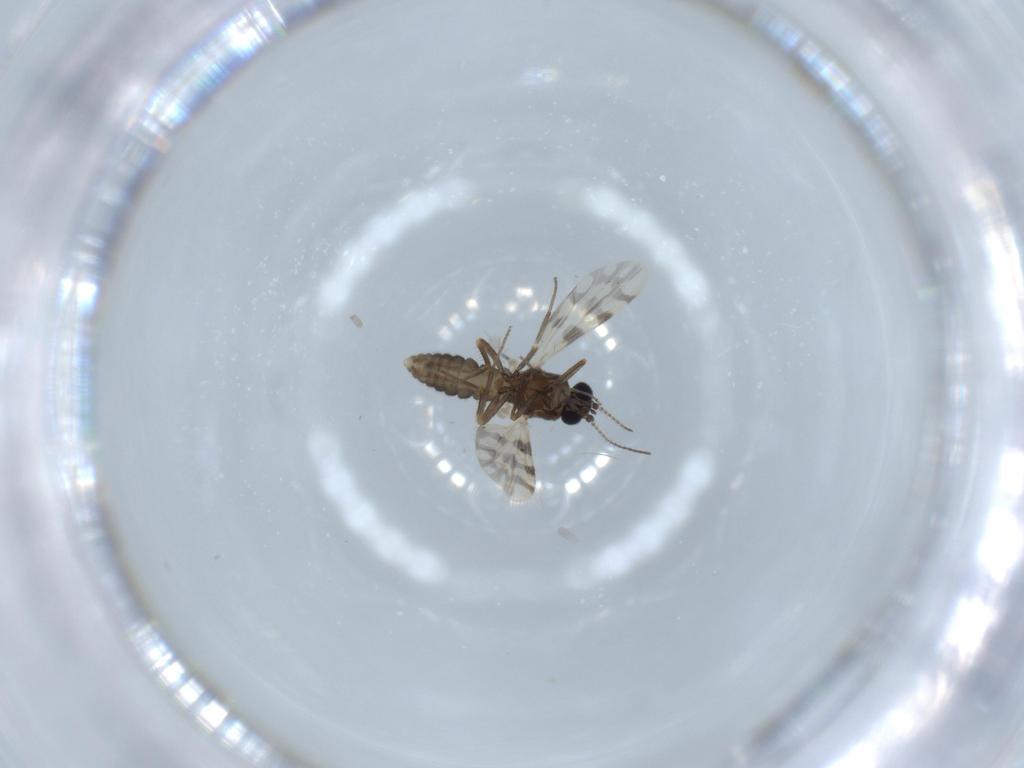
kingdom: Animalia
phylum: Arthropoda
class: Insecta
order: Diptera
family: Ceratopogonidae
